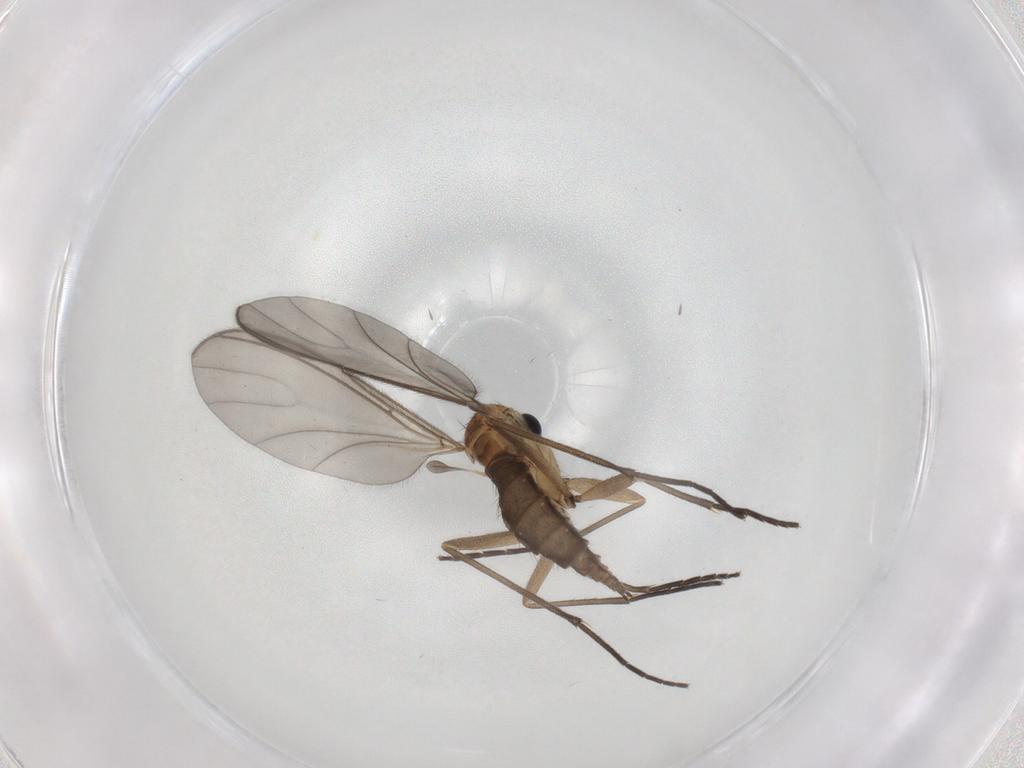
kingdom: Animalia
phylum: Arthropoda
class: Insecta
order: Diptera
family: Sciaridae
